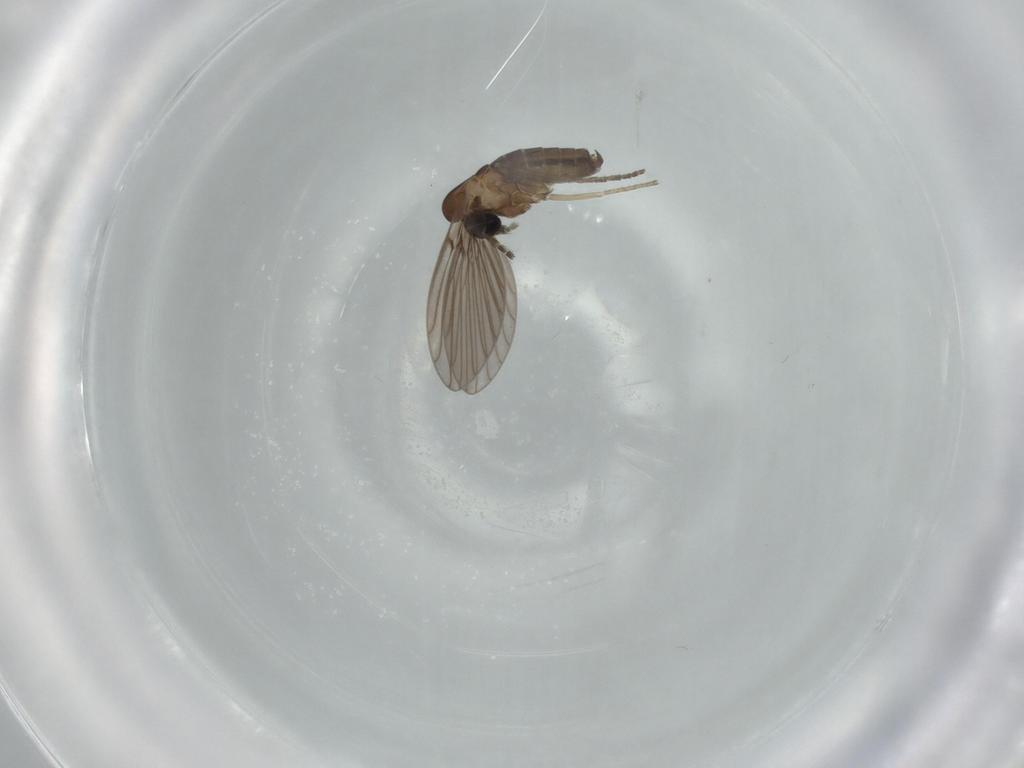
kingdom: Animalia
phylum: Arthropoda
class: Insecta
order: Diptera
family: Psychodidae
